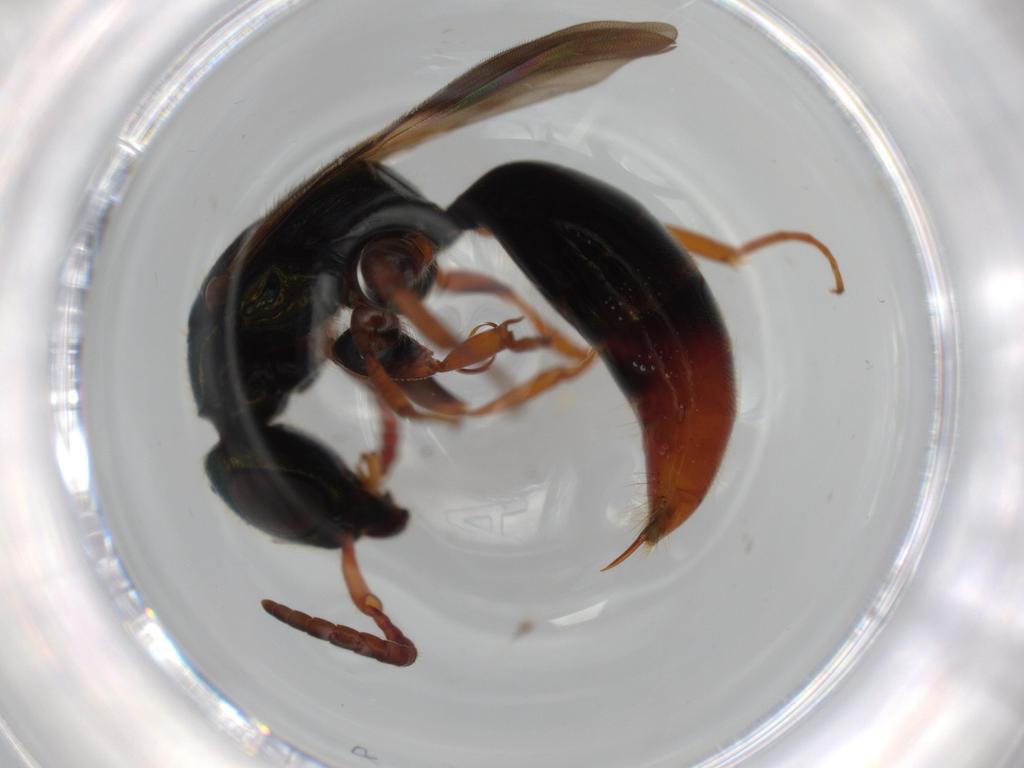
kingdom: Animalia
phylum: Arthropoda
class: Insecta
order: Hymenoptera
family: Bethylidae
